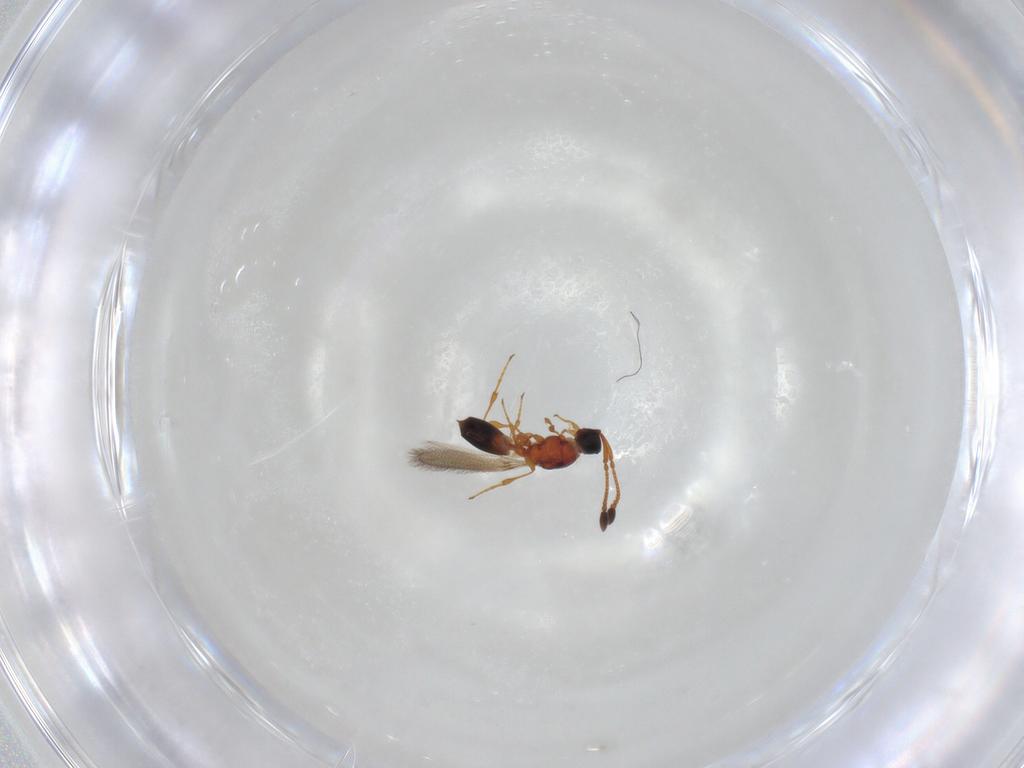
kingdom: Animalia
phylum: Arthropoda
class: Insecta
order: Hymenoptera
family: Diapriidae
